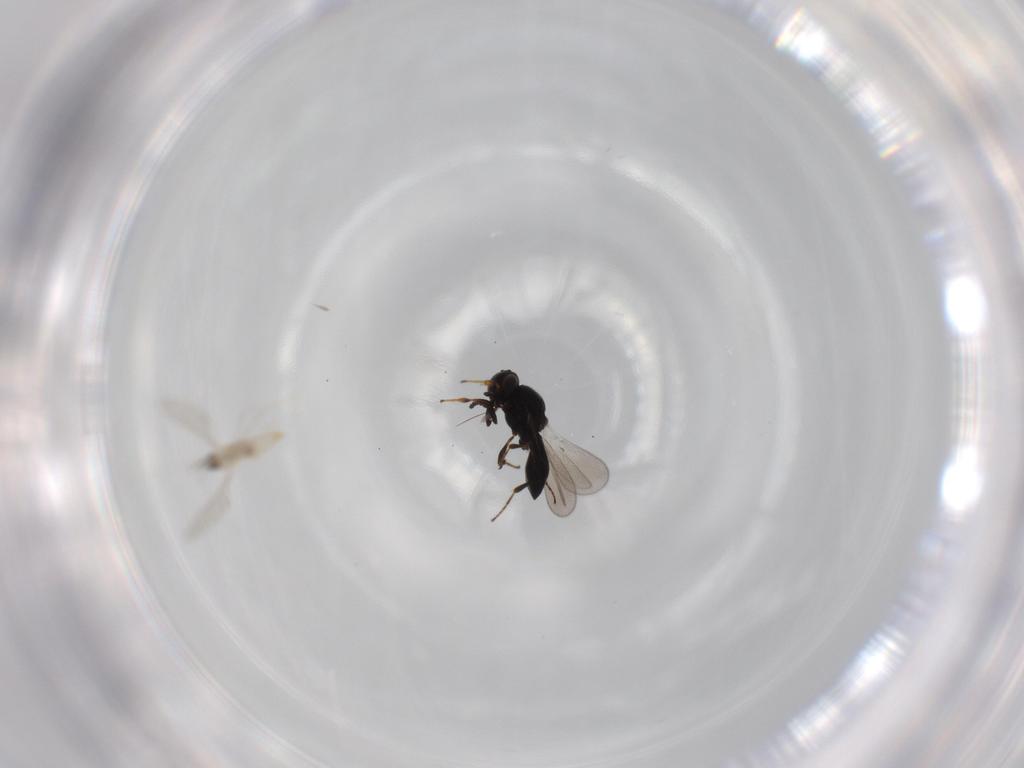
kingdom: Animalia
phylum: Arthropoda
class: Insecta
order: Hymenoptera
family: Platygastridae
